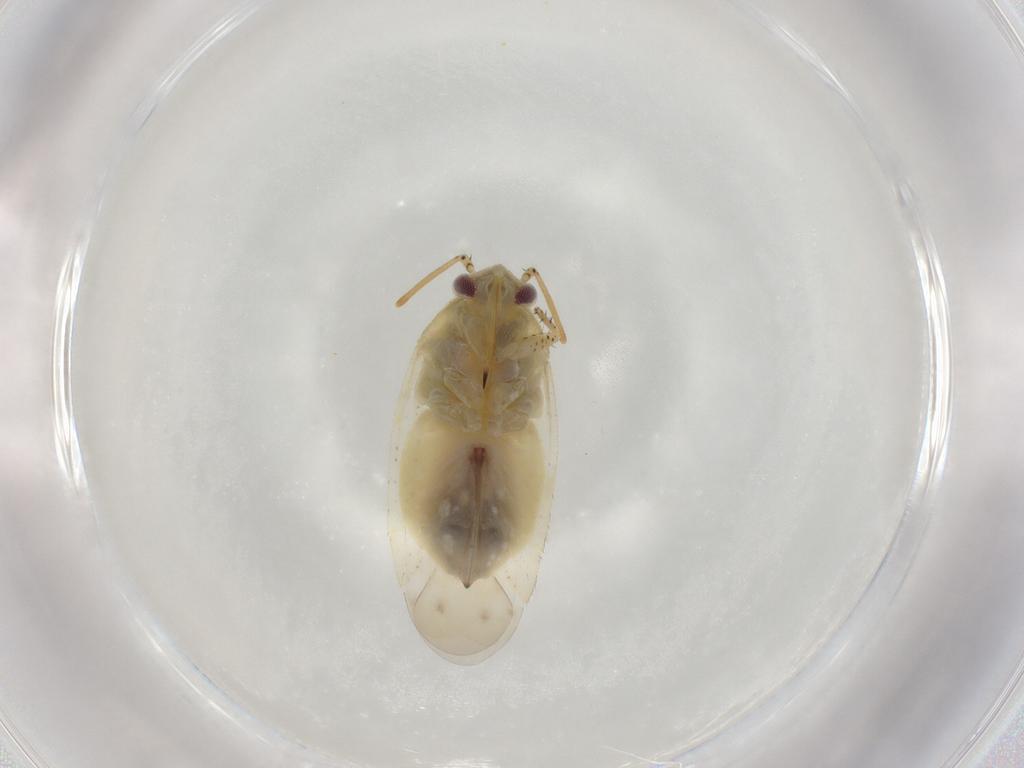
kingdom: Animalia
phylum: Arthropoda
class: Insecta
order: Hemiptera
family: Miridae
